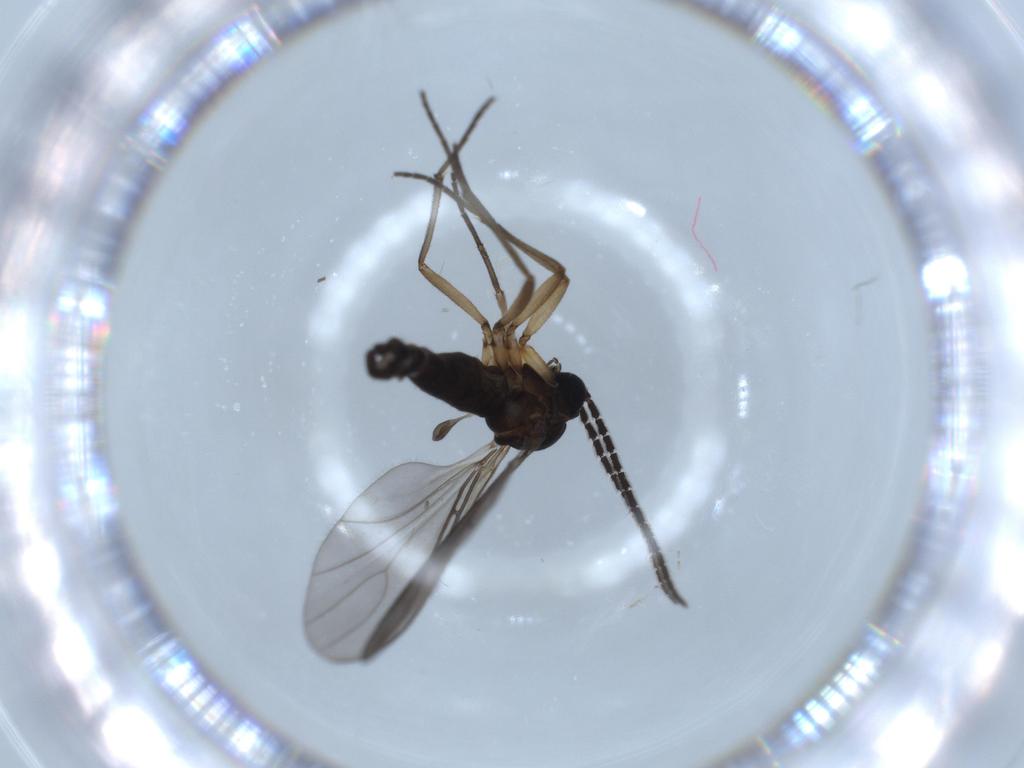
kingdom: Animalia
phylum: Arthropoda
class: Insecta
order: Diptera
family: Sciaridae
